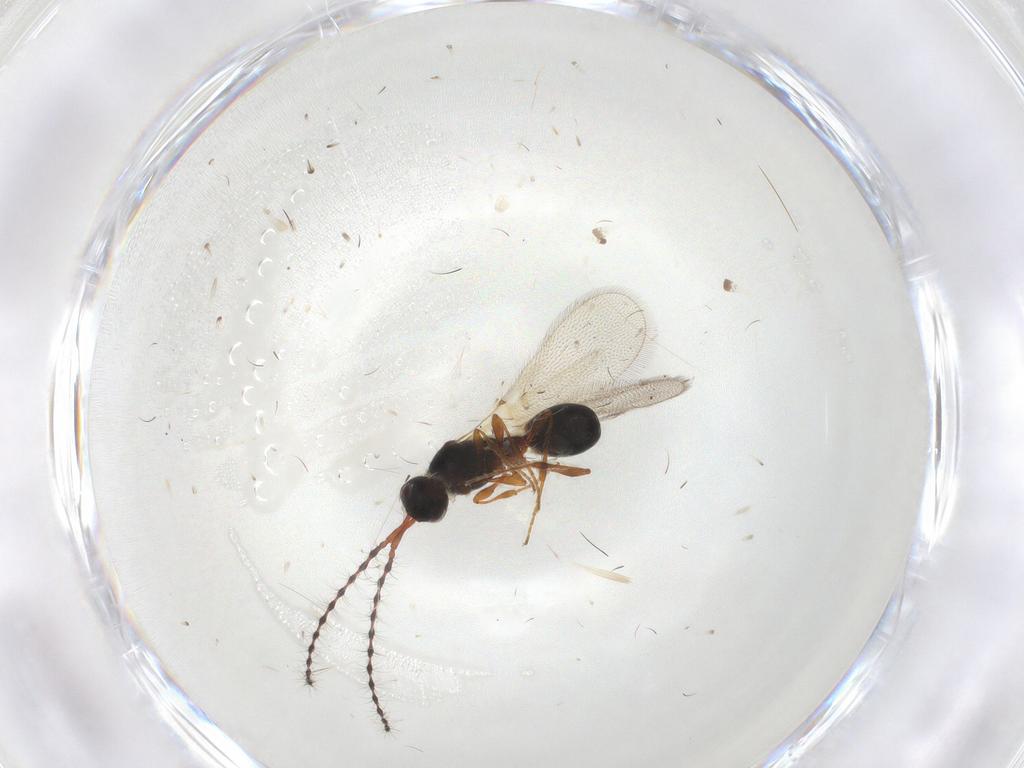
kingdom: Animalia
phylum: Arthropoda
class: Insecta
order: Hymenoptera
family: Diapriidae
